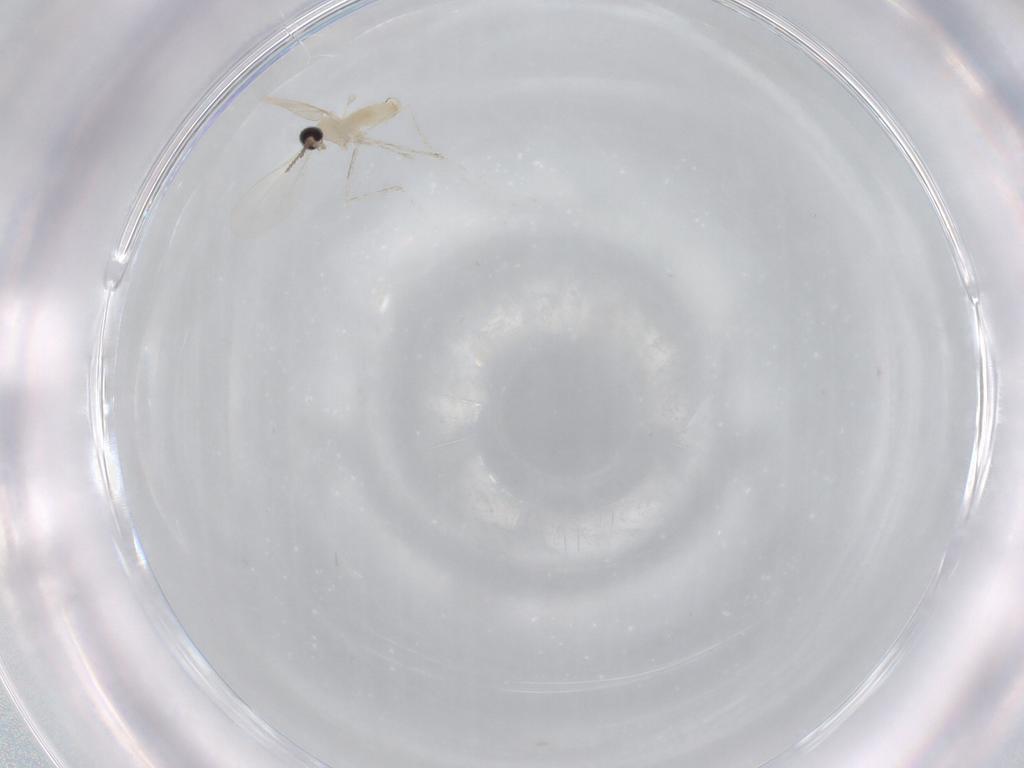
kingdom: Animalia
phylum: Arthropoda
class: Insecta
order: Diptera
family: Cecidomyiidae
